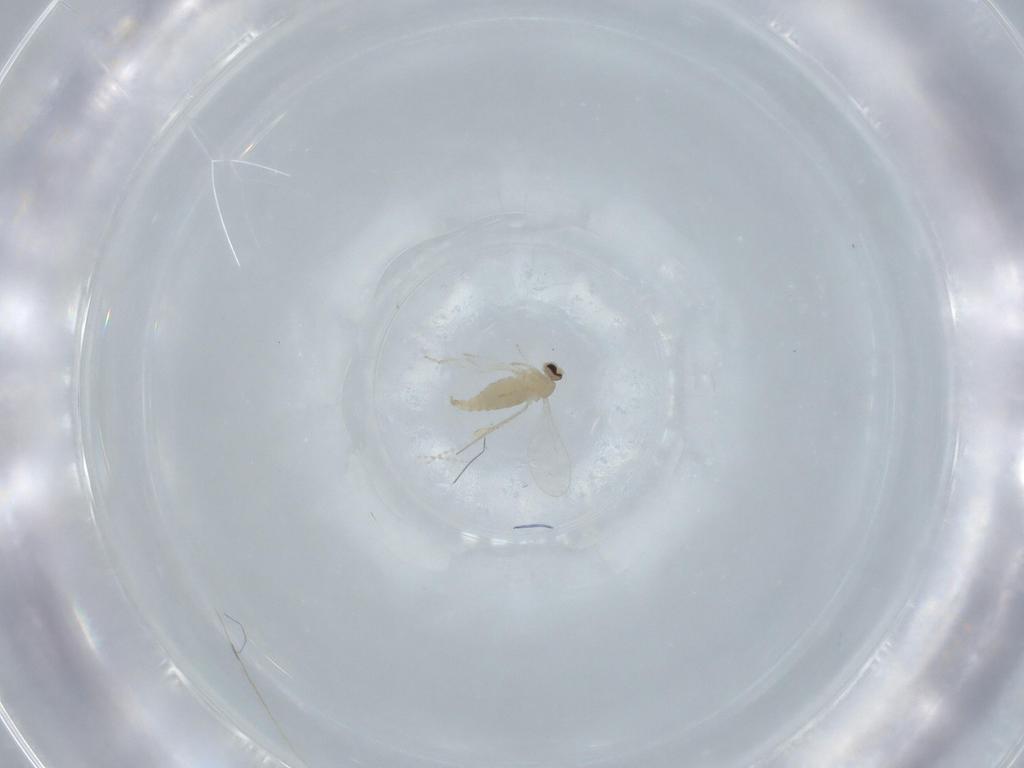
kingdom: Animalia
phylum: Arthropoda
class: Insecta
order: Diptera
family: Cecidomyiidae
